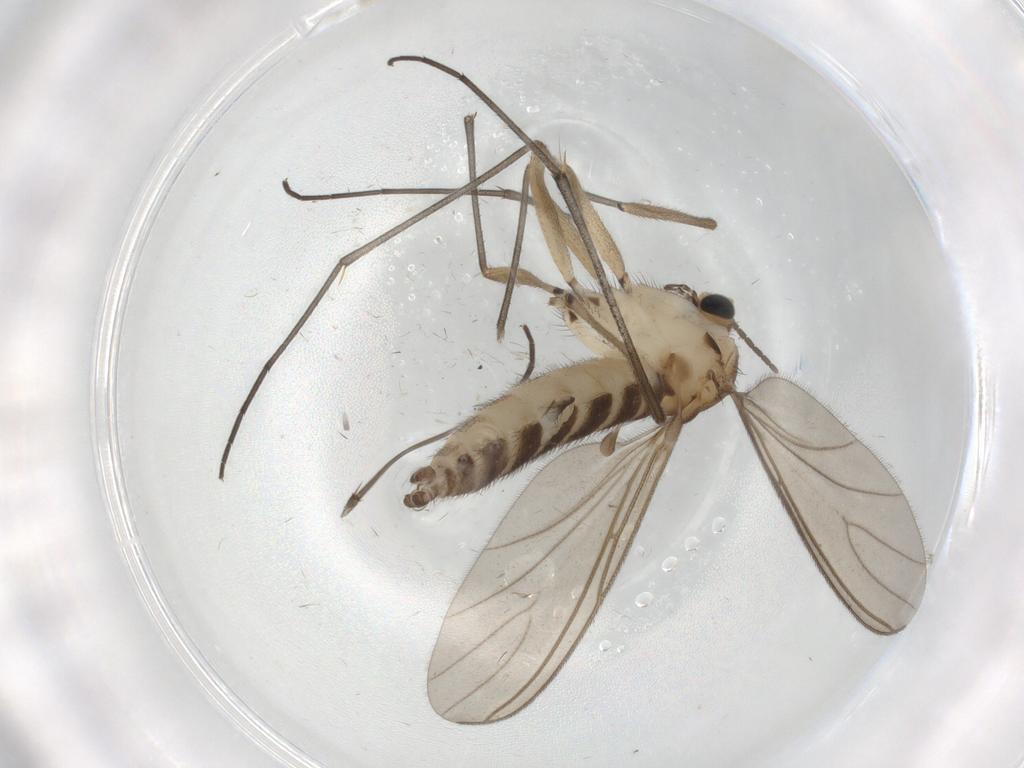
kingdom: Animalia
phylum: Arthropoda
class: Insecta
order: Diptera
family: Sciaridae
